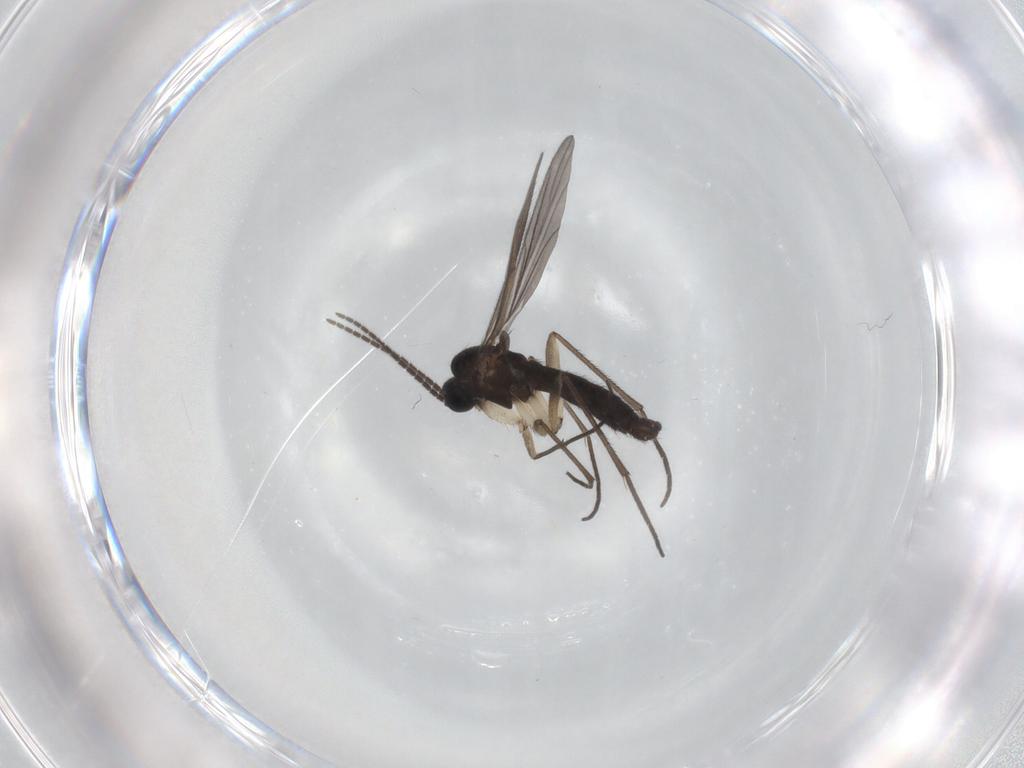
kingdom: Animalia
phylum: Arthropoda
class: Insecta
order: Diptera
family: Sciaridae
